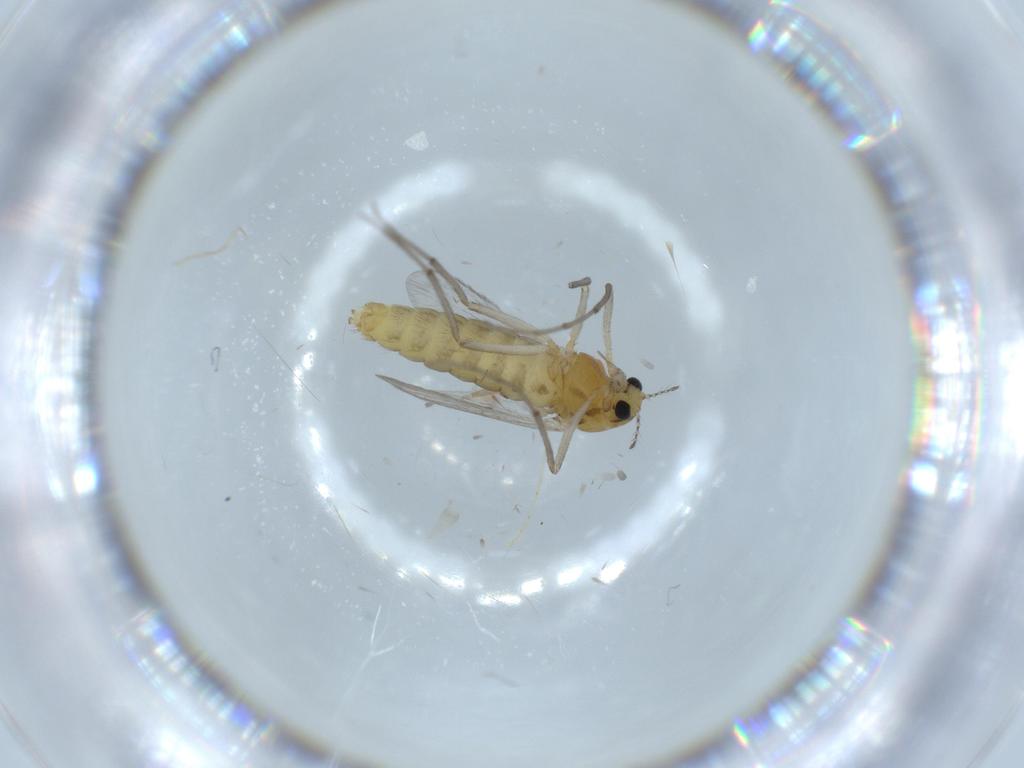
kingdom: Animalia
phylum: Arthropoda
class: Insecta
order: Diptera
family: Chironomidae
